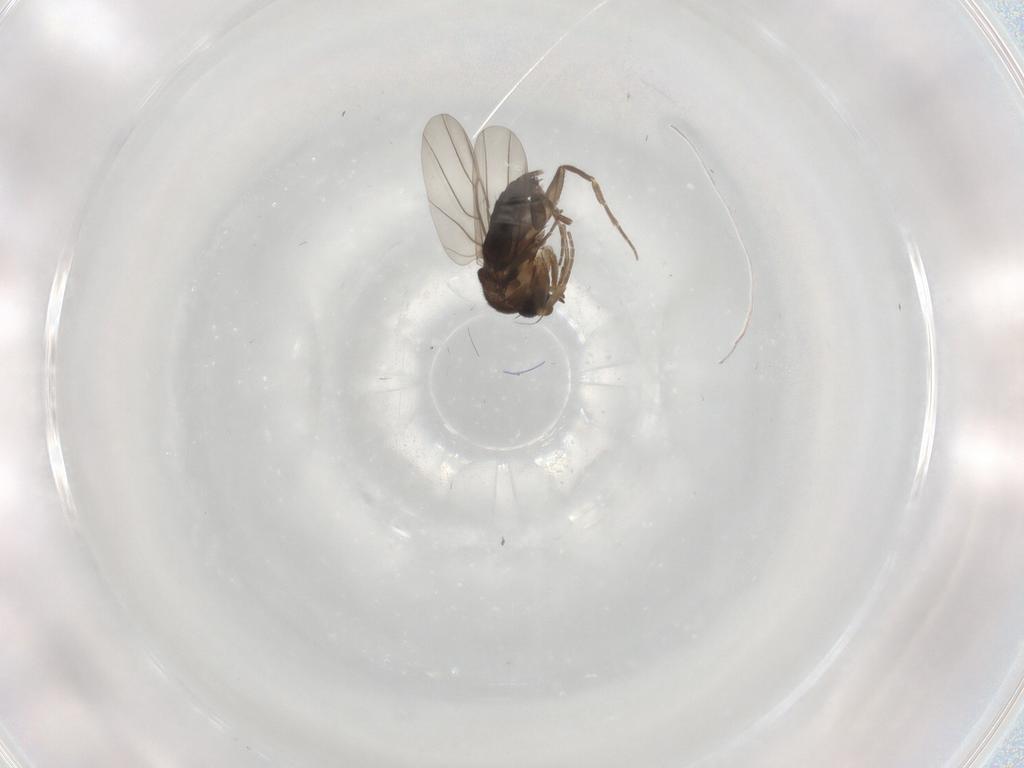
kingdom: Animalia
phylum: Arthropoda
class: Insecta
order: Diptera
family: Phoridae
